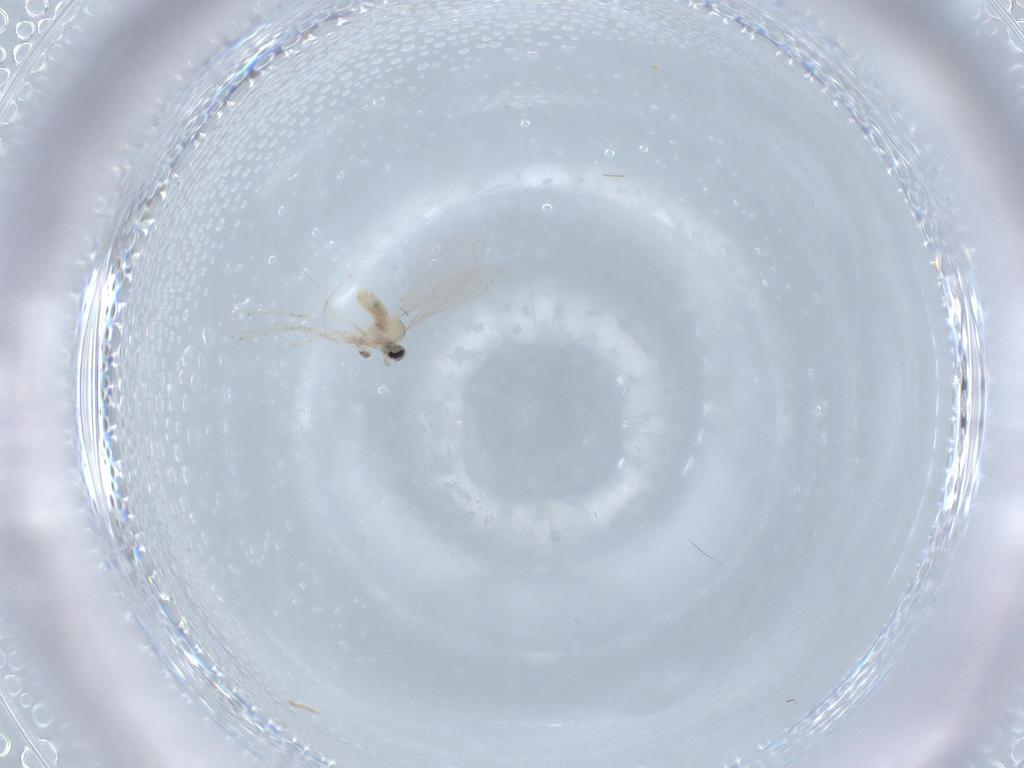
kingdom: Animalia
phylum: Arthropoda
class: Insecta
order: Diptera
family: Cecidomyiidae
